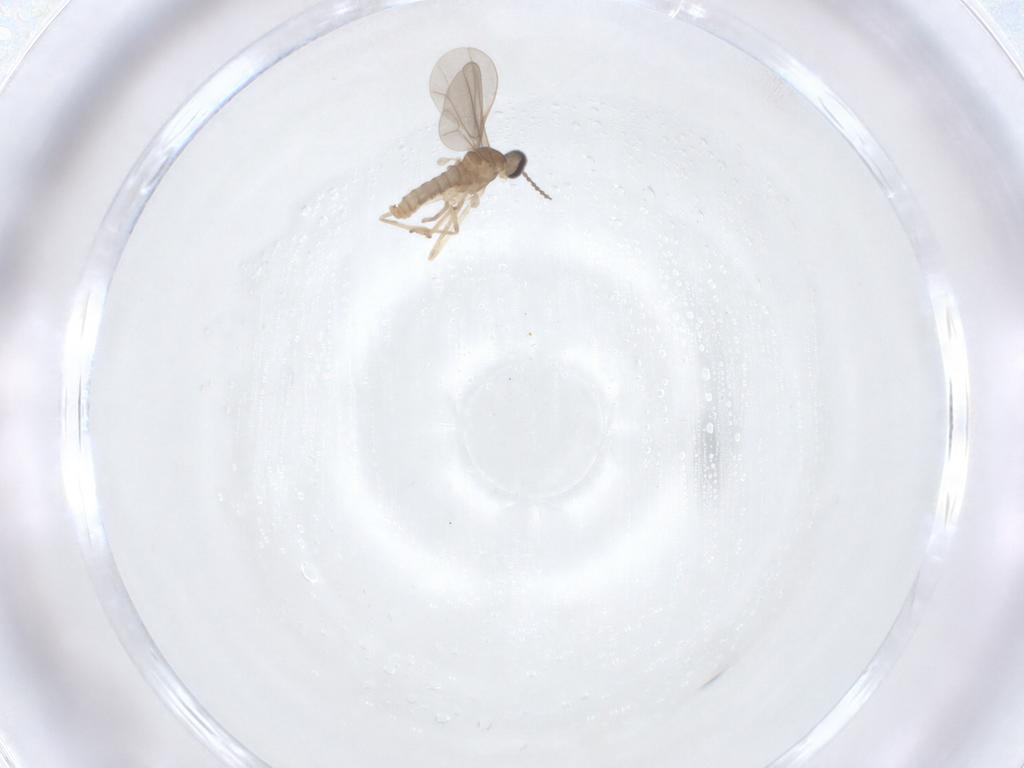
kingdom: Animalia
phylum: Arthropoda
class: Insecta
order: Diptera
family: Cecidomyiidae
